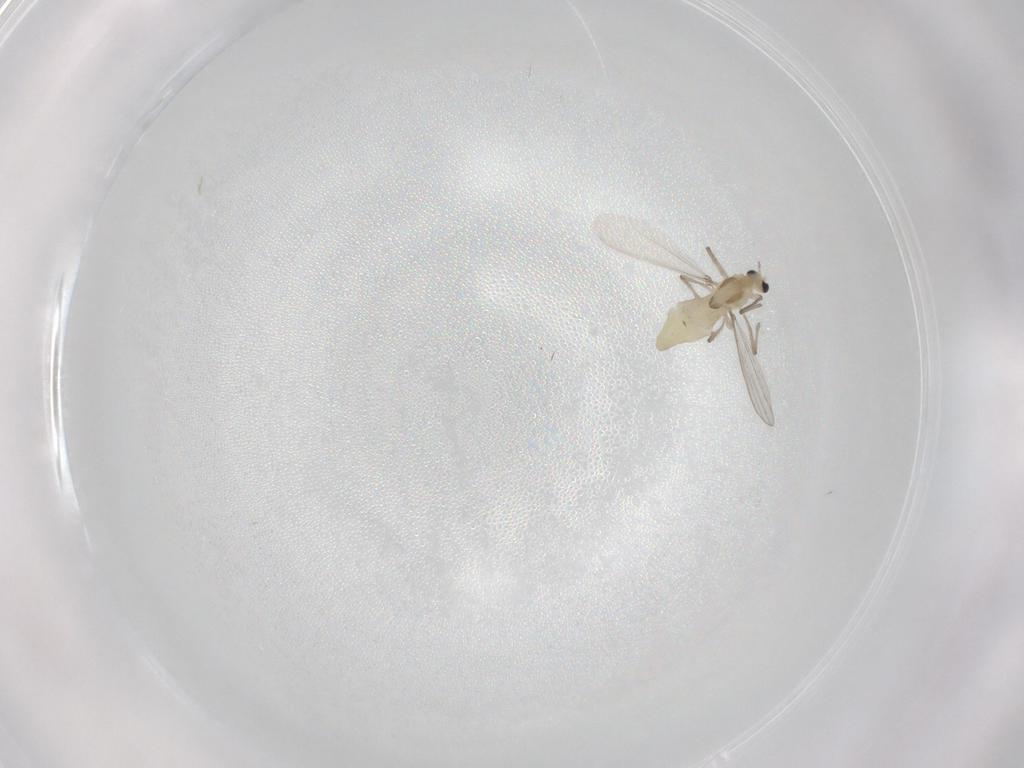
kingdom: Animalia
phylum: Arthropoda
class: Insecta
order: Diptera
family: Chironomidae
